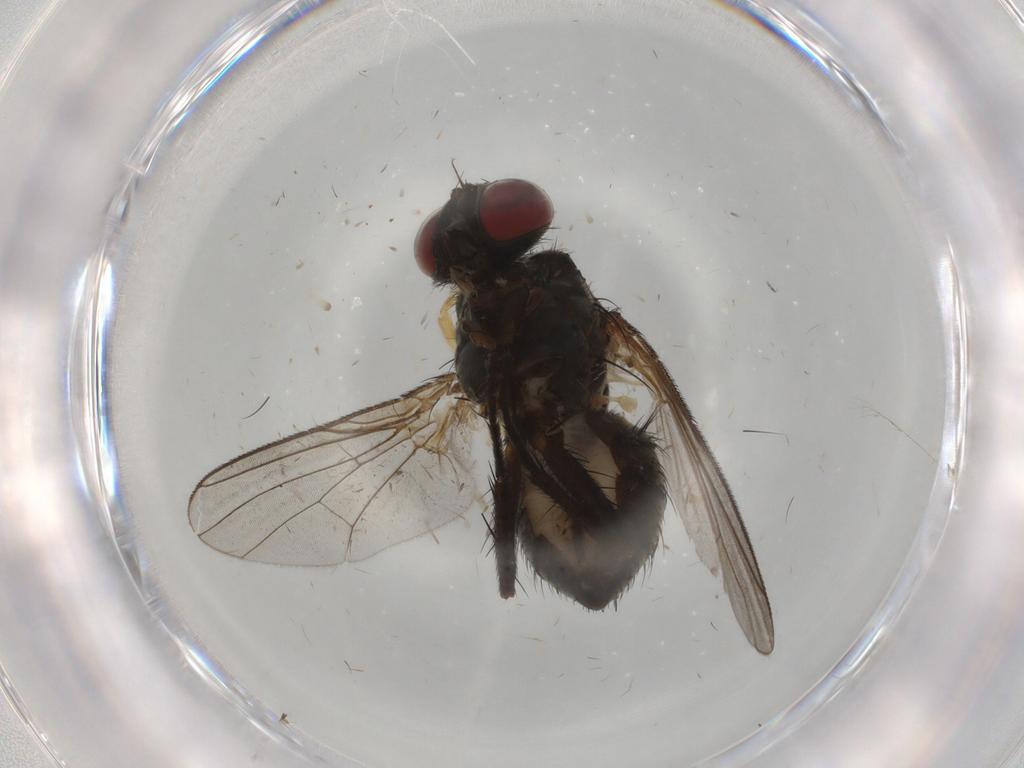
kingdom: Animalia
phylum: Arthropoda
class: Insecta
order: Diptera
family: Muscidae
